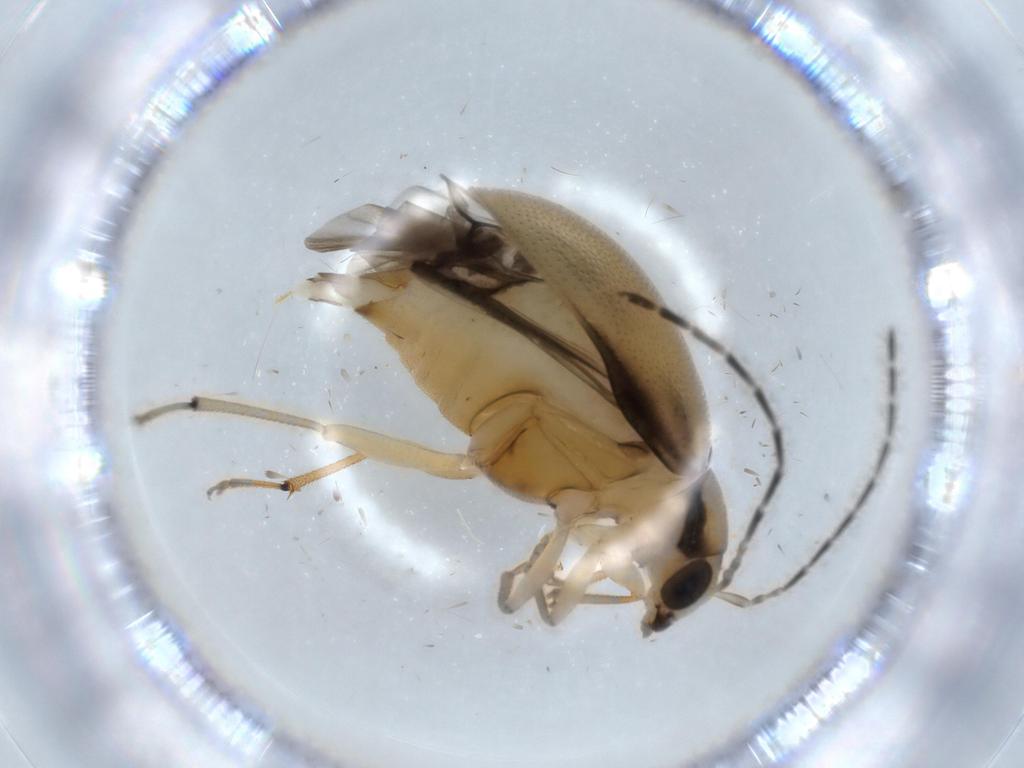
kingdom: Animalia
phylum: Arthropoda
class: Insecta
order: Coleoptera
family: Chrysomelidae
